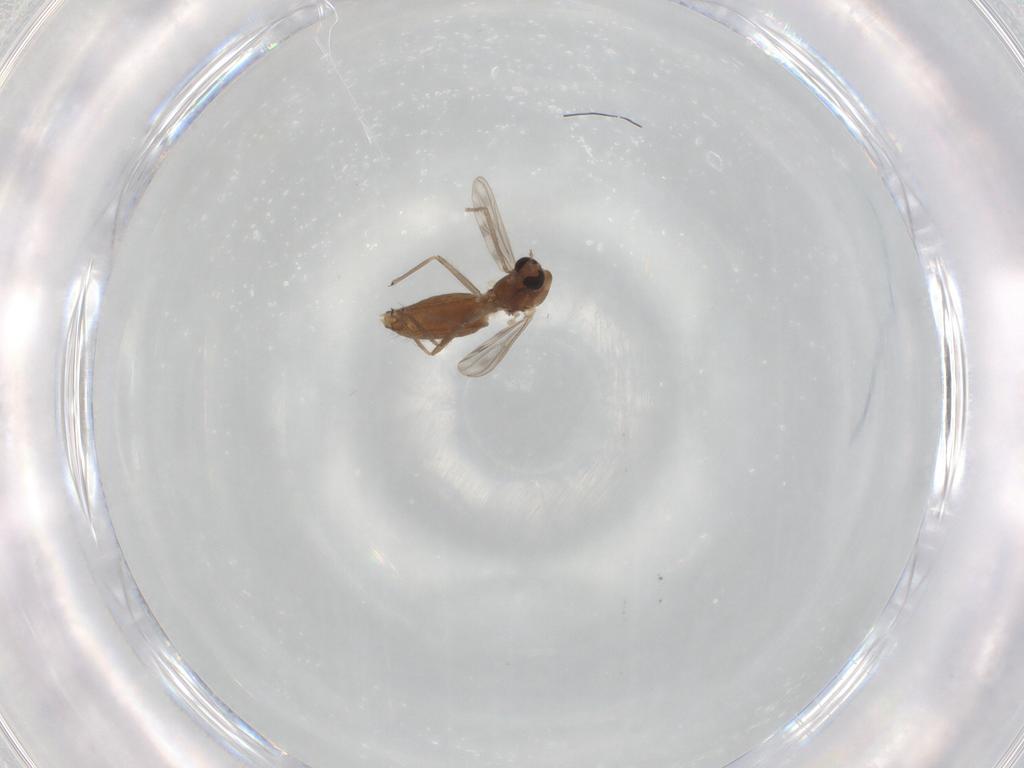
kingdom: Animalia
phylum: Arthropoda
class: Insecta
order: Diptera
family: Chironomidae
